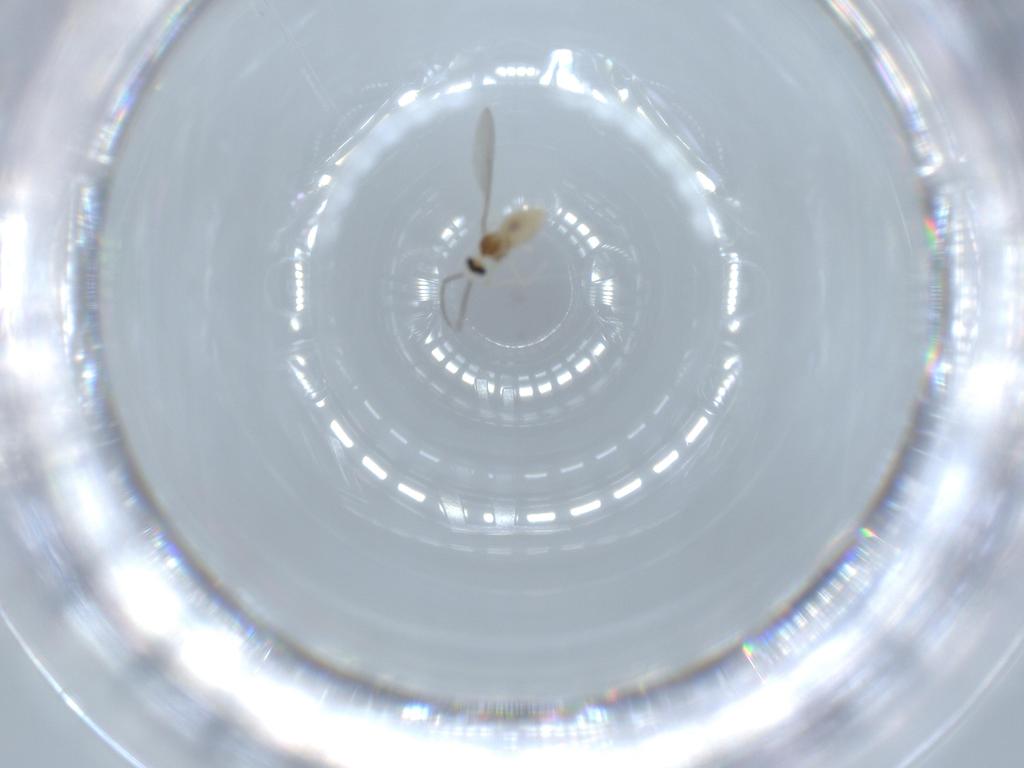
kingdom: Animalia
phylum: Arthropoda
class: Insecta
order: Diptera
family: Cecidomyiidae
